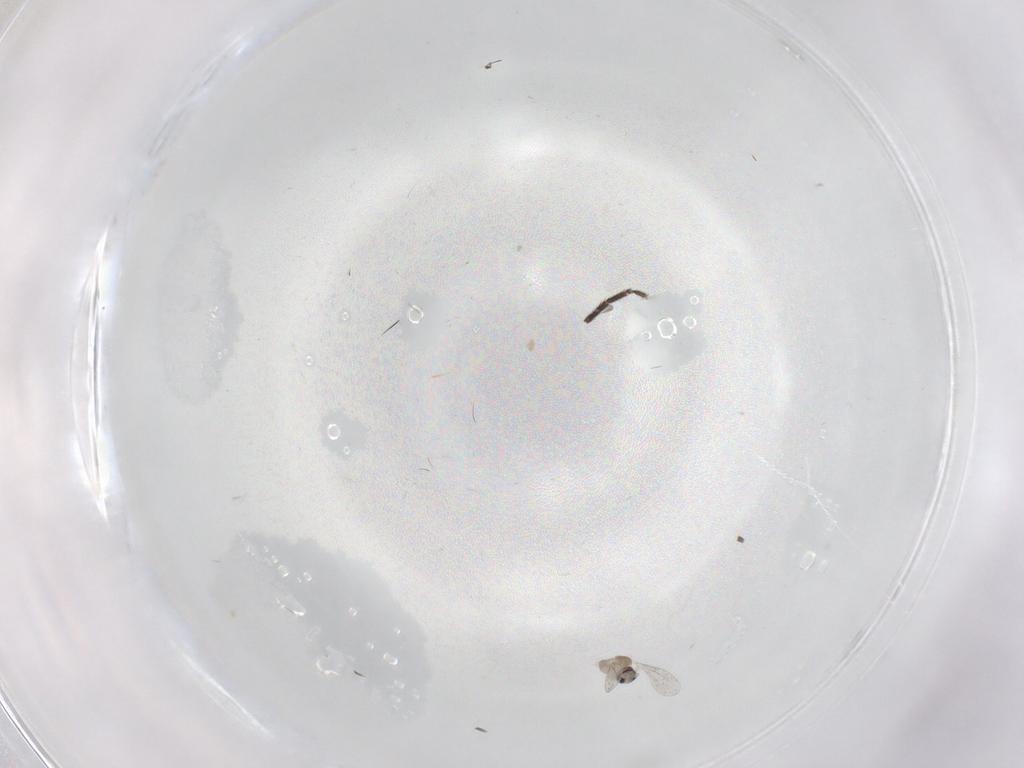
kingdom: Animalia
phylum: Arthropoda
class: Insecta
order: Diptera
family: Cecidomyiidae
